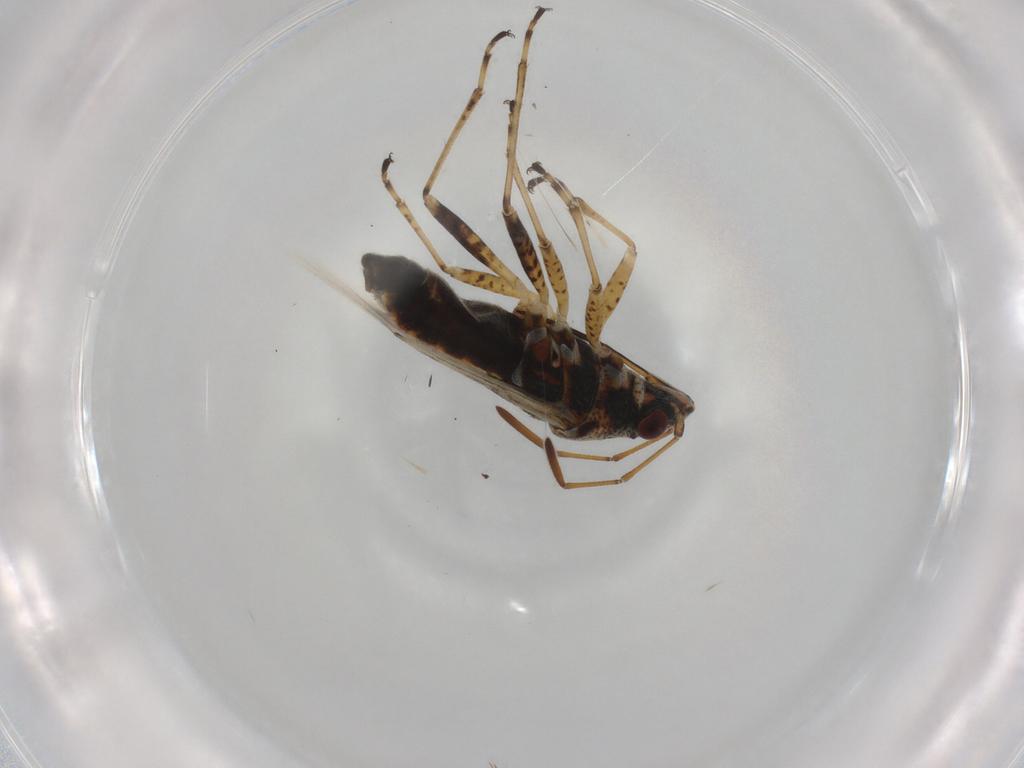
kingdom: Animalia
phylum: Arthropoda
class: Insecta
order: Hemiptera
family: Lygaeidae
